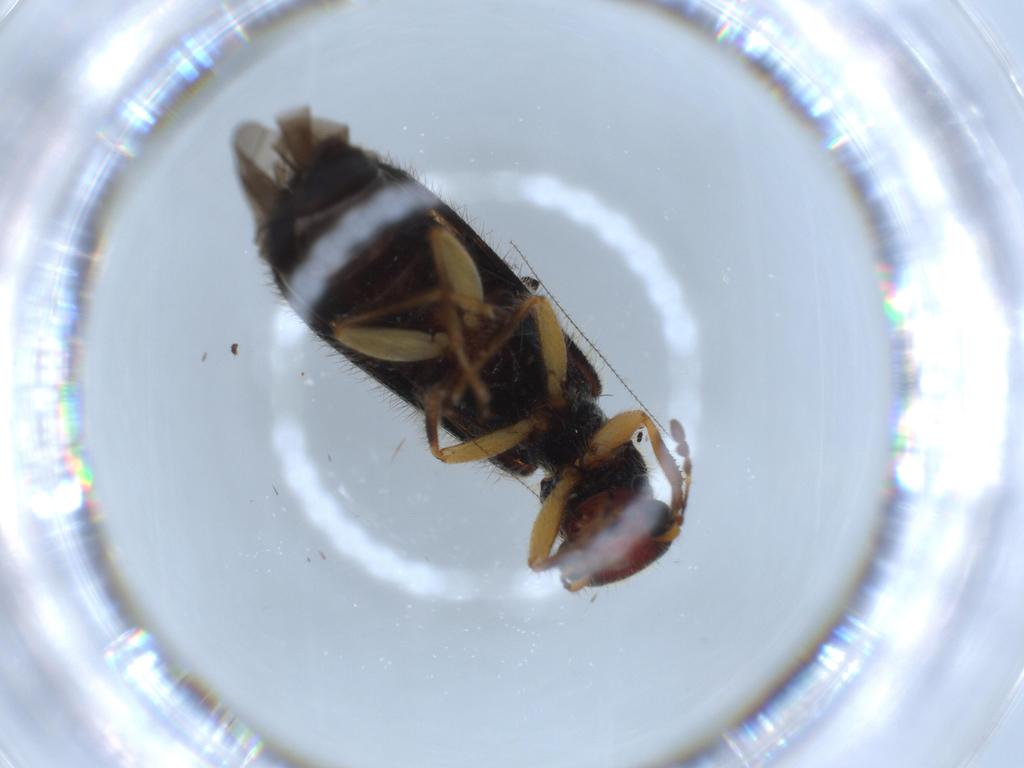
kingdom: Animalia
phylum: Arthropoda
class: Insecta
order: Coleoptera
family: Cleridae
